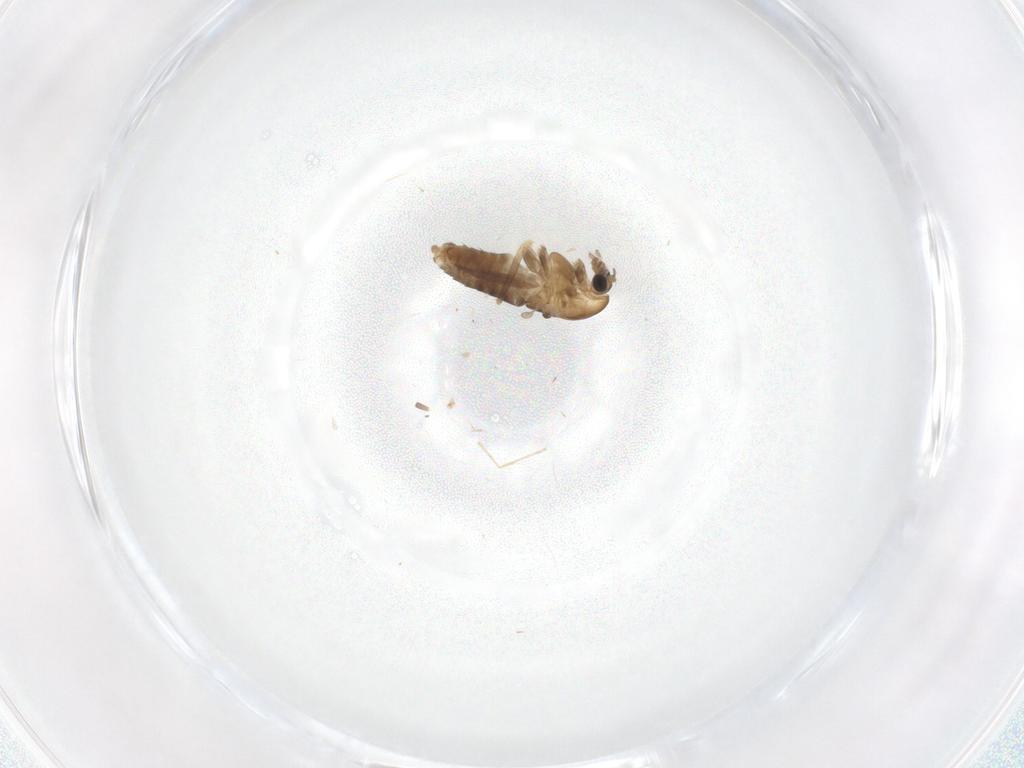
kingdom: Animalia
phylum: Arthropoda
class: Insecta
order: Diptera
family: Chironomidae
